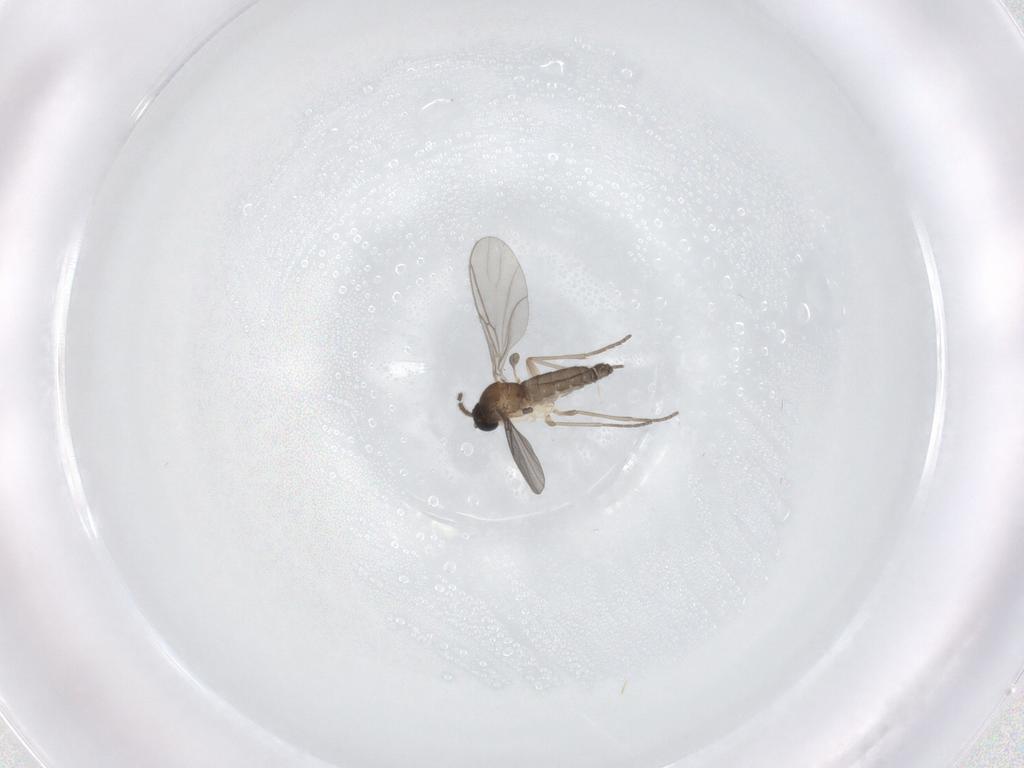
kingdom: Animalia
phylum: Arthropoda
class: Insecta
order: Diptera
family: Sciaridae
